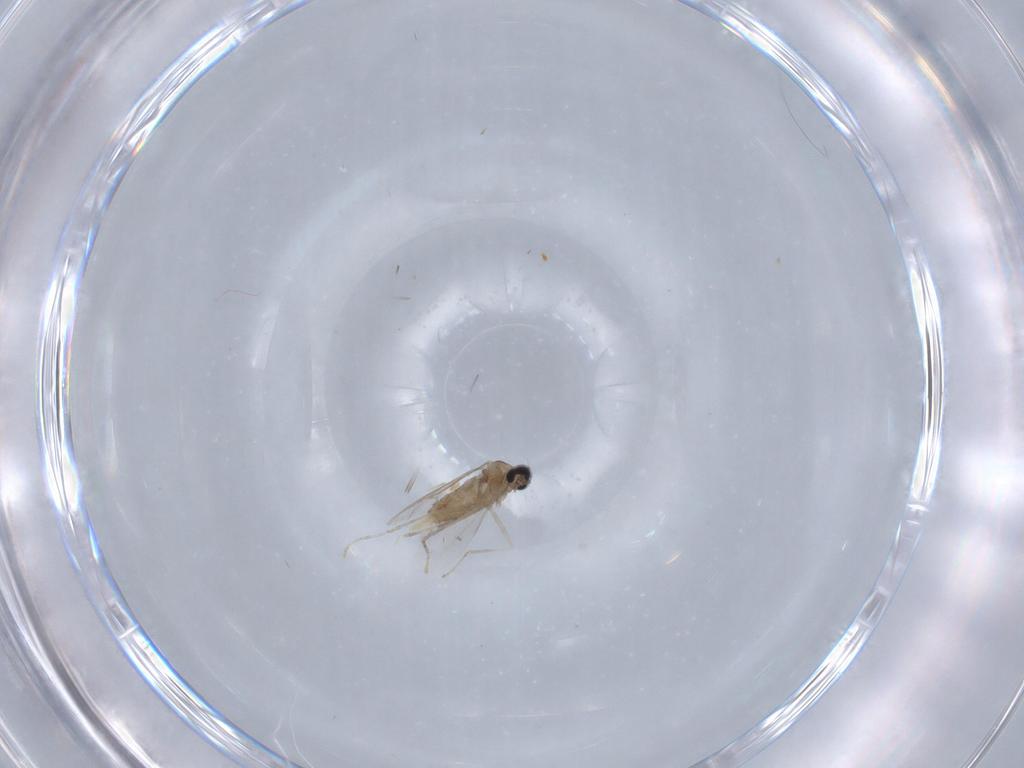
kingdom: Animalia
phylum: Arthropoda
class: Insecta
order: Diptera
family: Cecidomyiidae
